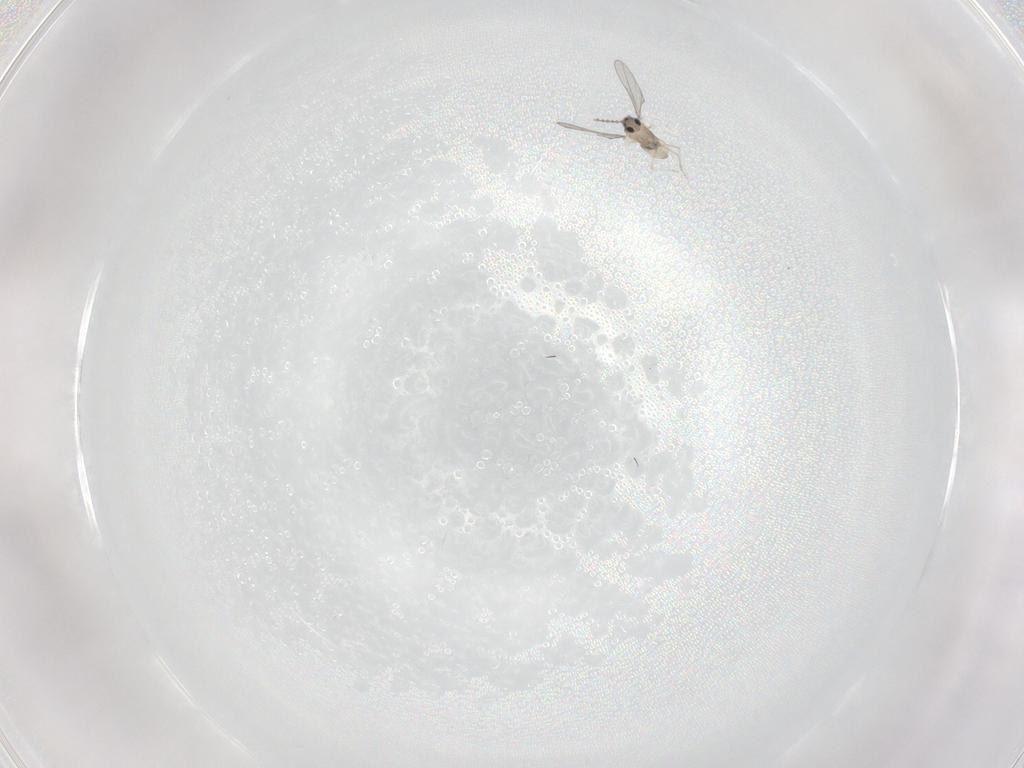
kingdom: Animalia
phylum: Arthropoda
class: Insecta
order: Diptera
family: Cecidomyiidae
